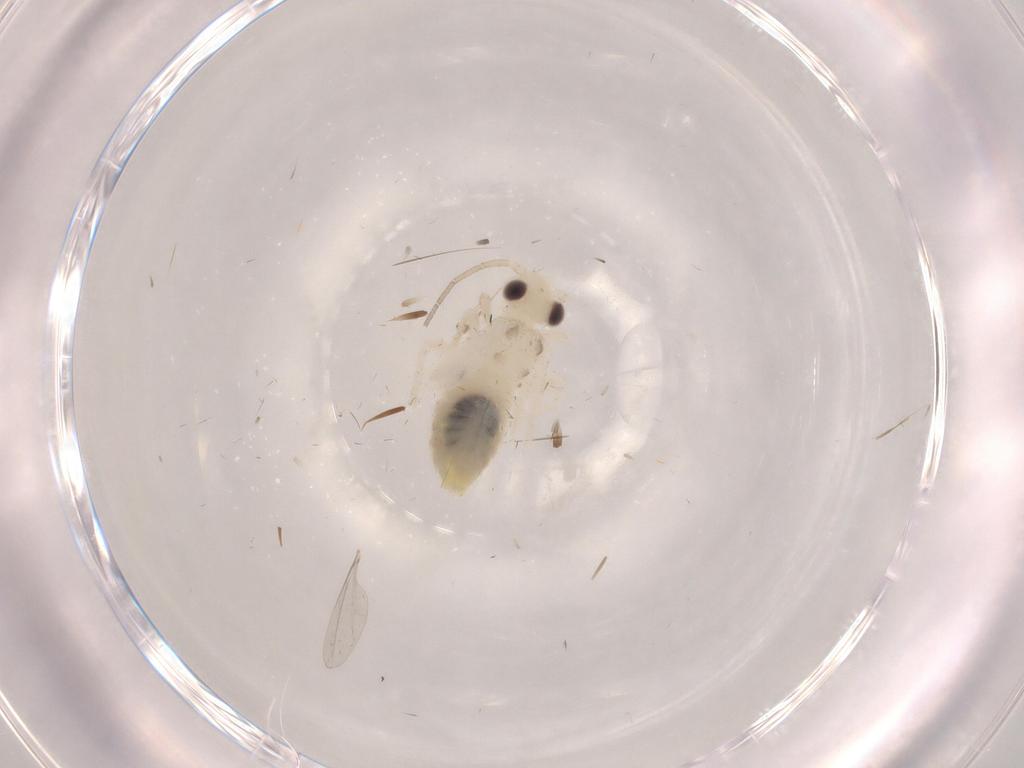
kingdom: Animalia
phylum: Arthropoda
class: Insecta
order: Psocodea
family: Caeciliusidae
